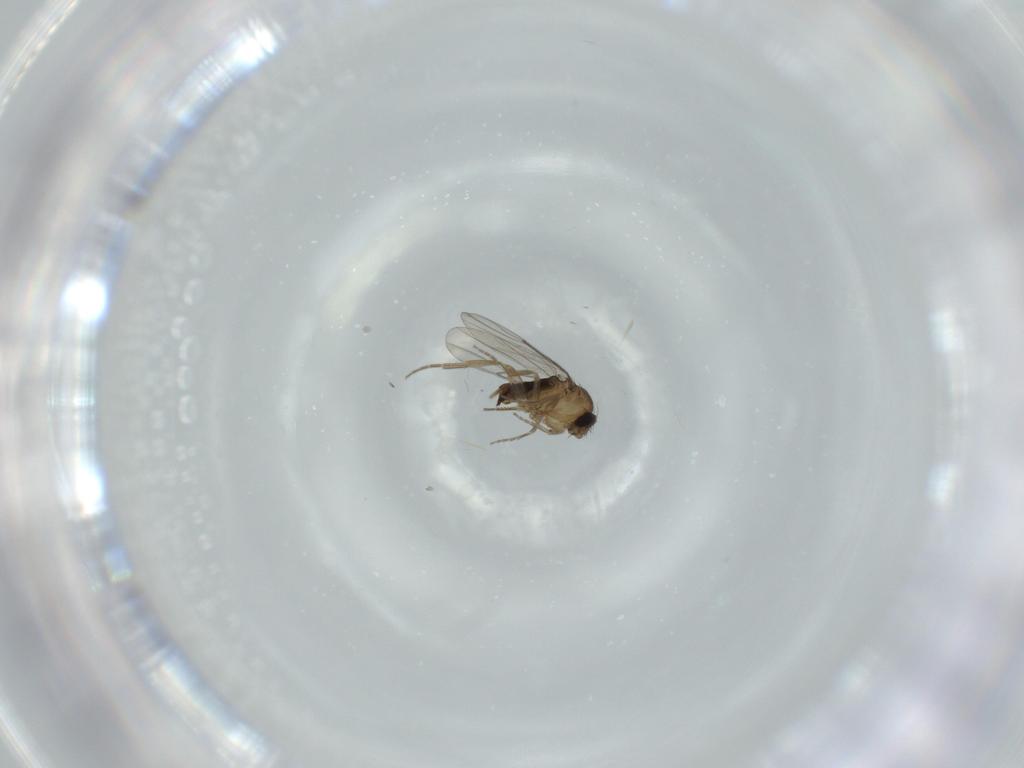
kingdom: Animalia
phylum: Arthropoda
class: Insecta
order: Diptera
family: Phoridae
